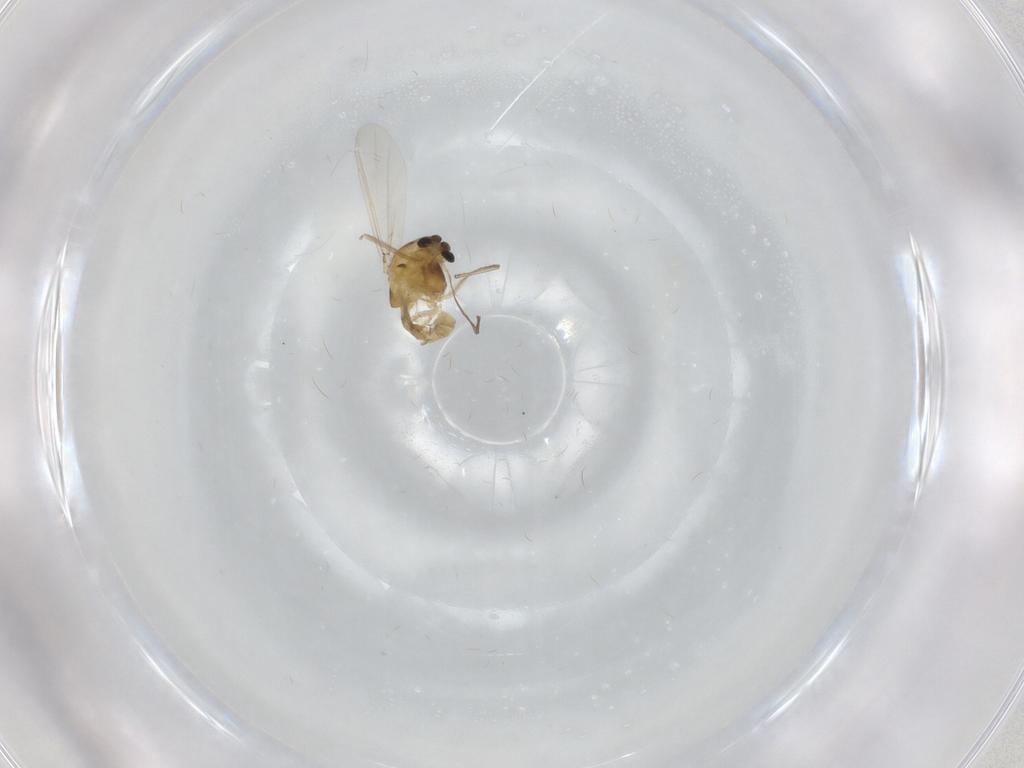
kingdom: Animalia
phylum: Arthropoda
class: Insecta
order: Diptera
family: Chironomidae
